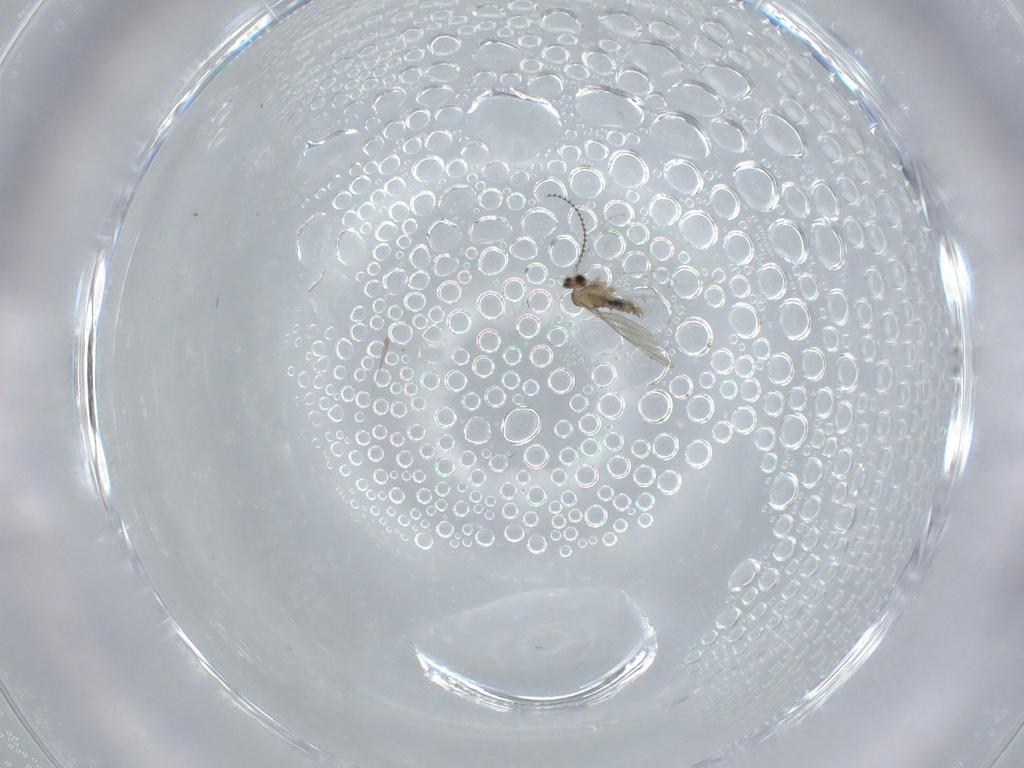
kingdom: Animalia
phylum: Arthropoda
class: Insecta
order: Diptera
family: Cecidomyiidae
